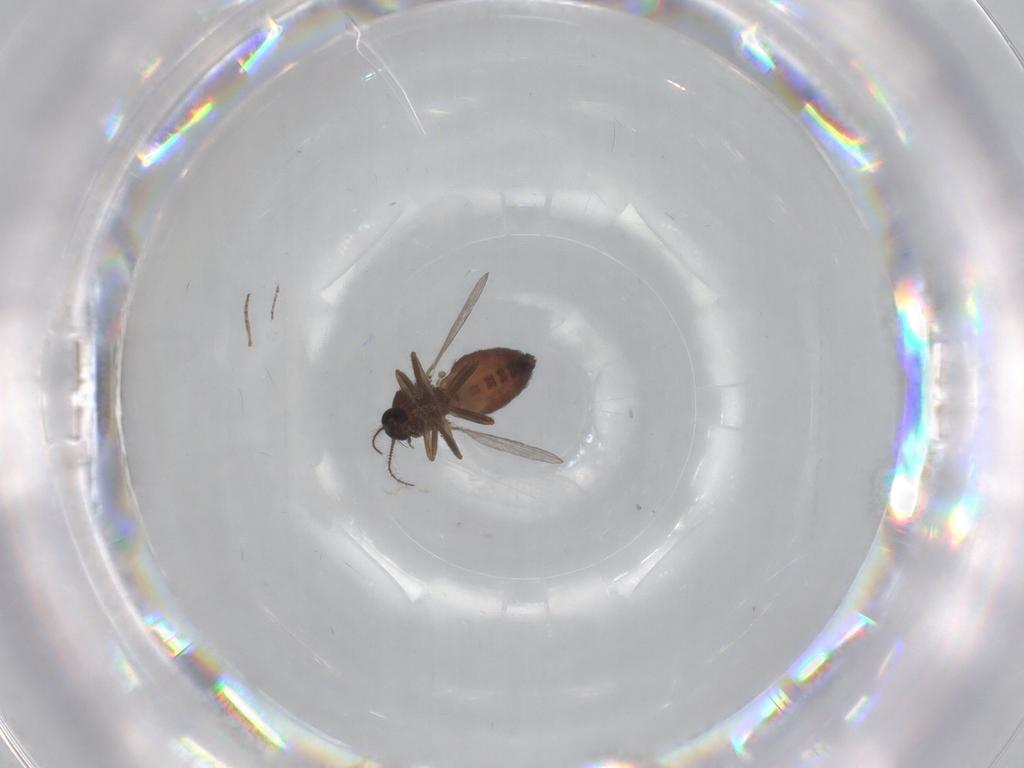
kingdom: Animalia
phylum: Arthropoda
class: Insecta
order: Diptera
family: Ceratopogonidae
